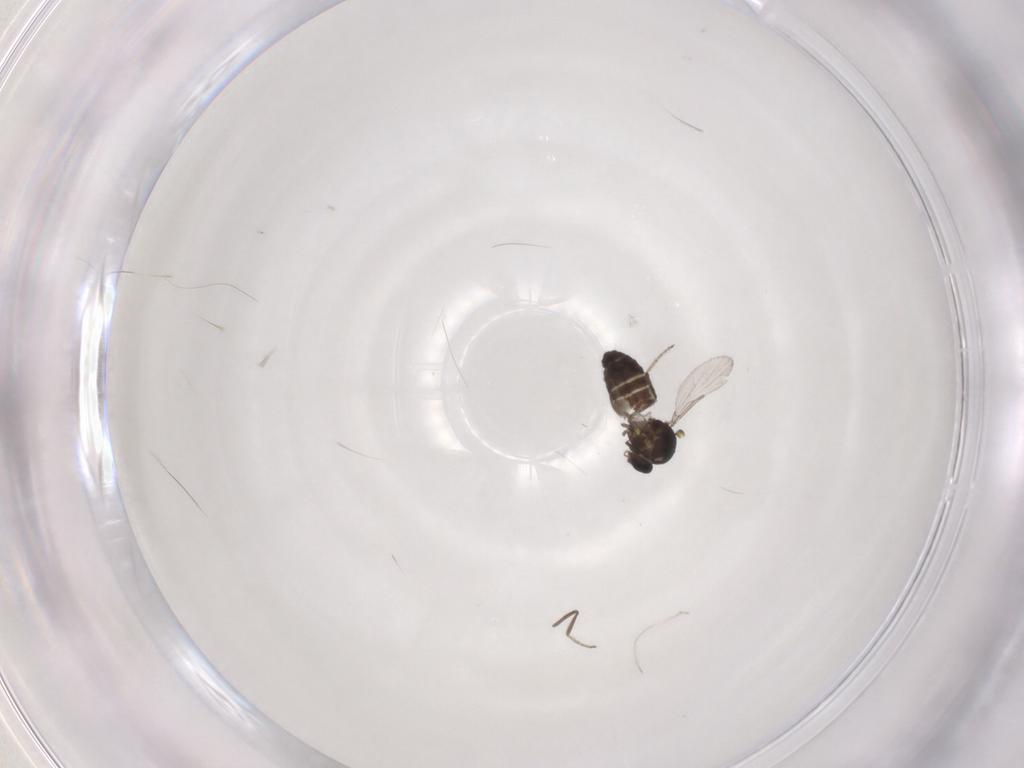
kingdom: Animalia
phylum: Arthropoda
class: Insecta
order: Diptera
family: Ceratopogonidae
